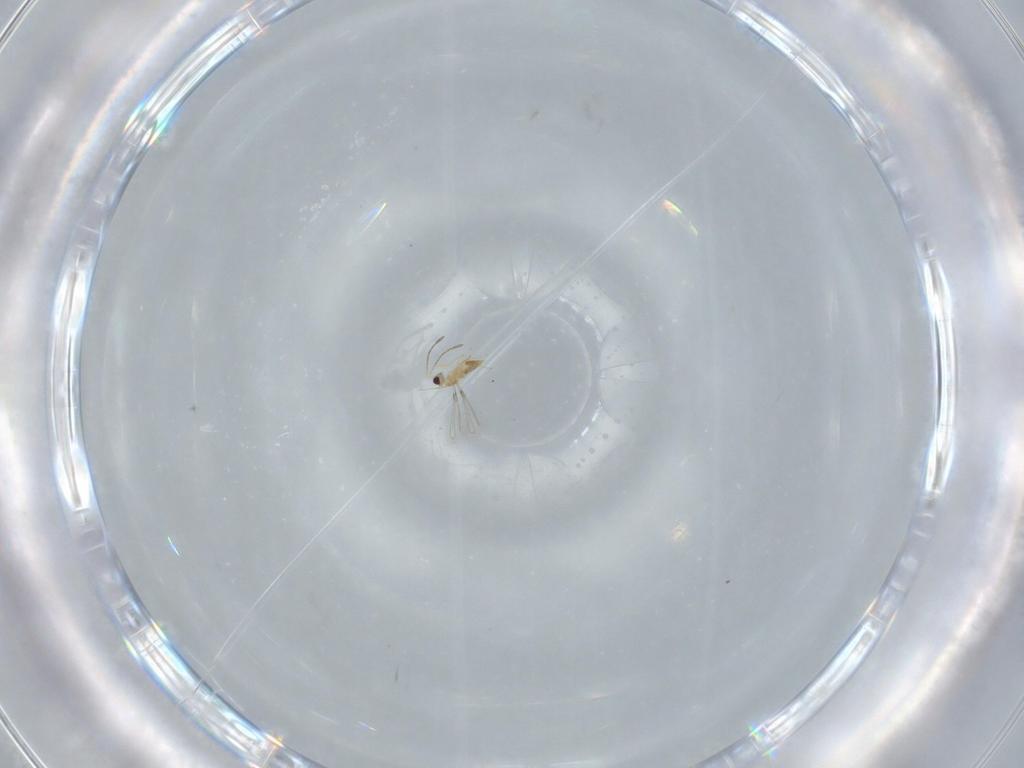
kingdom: Animalia
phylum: Arthropoda
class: Insecta
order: Hymenoptera
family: Mymaridae
